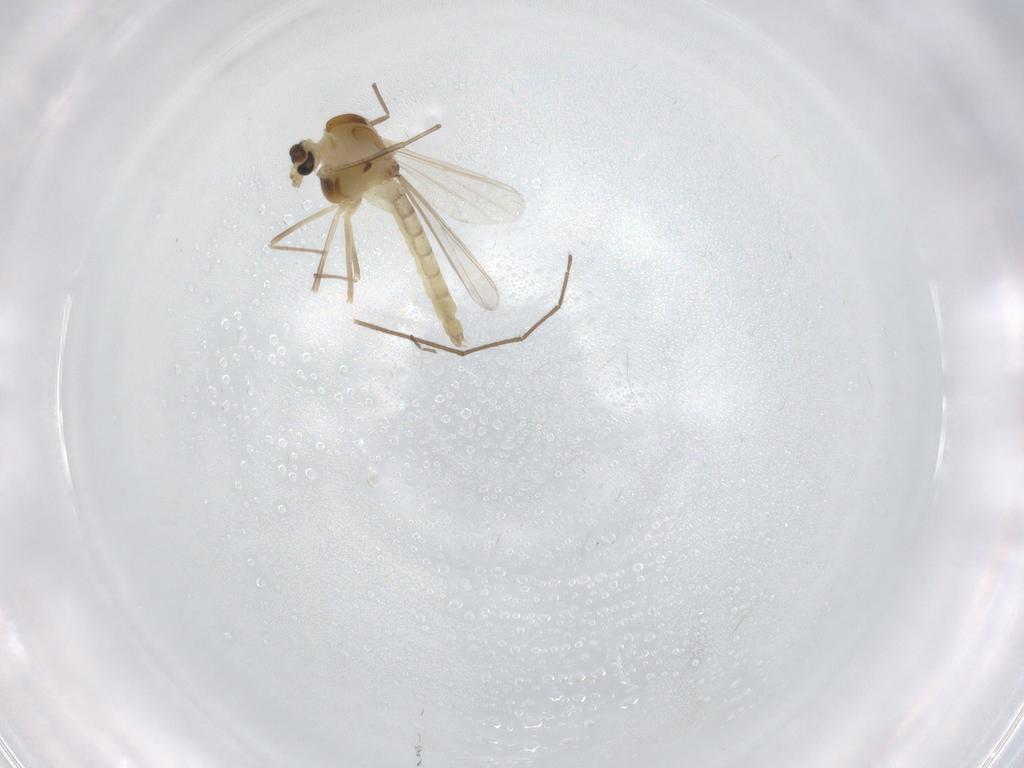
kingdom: Animalia
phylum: Arthropoda
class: Insecta
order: Diptera
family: Chironomidae
